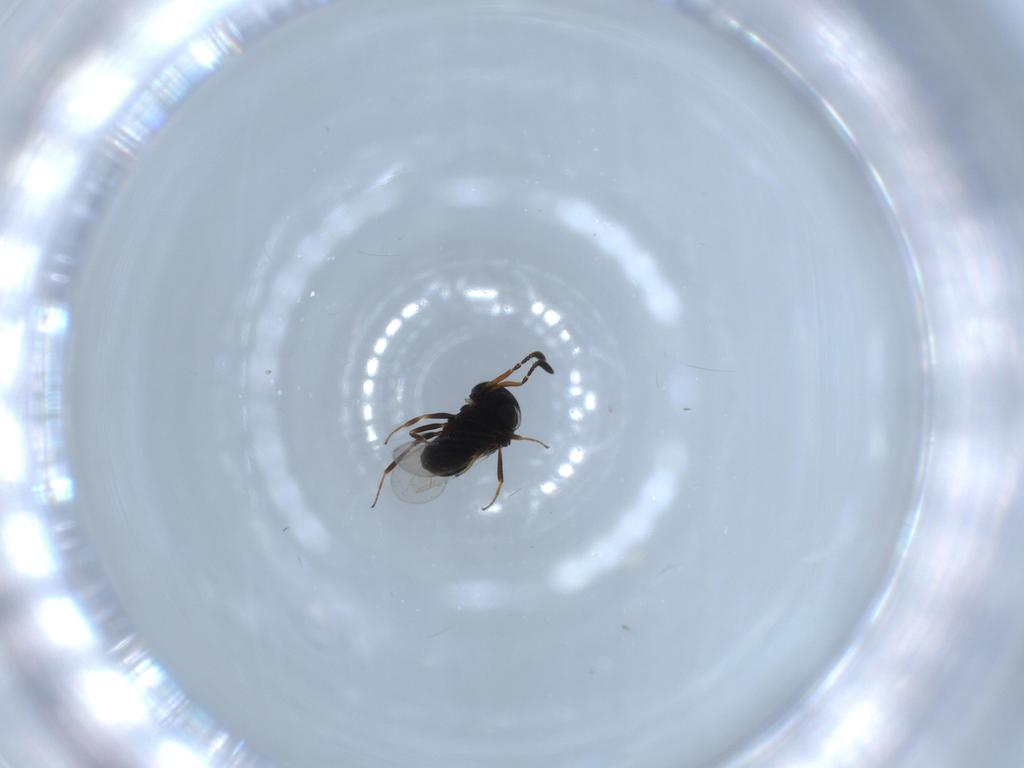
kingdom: Animalia
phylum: Arthropoda
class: Insecta
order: Hymenoptera
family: Scelionidae
